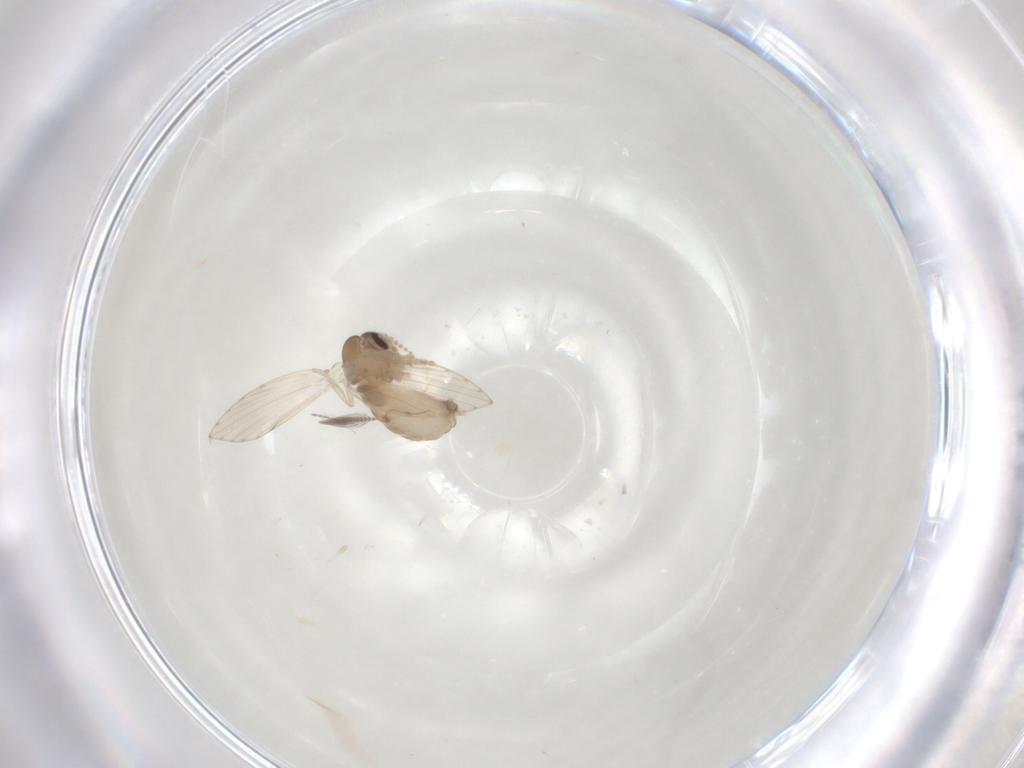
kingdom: Animalia
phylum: Arthropoda
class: Insecta
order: Diptera
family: Psychodidae
